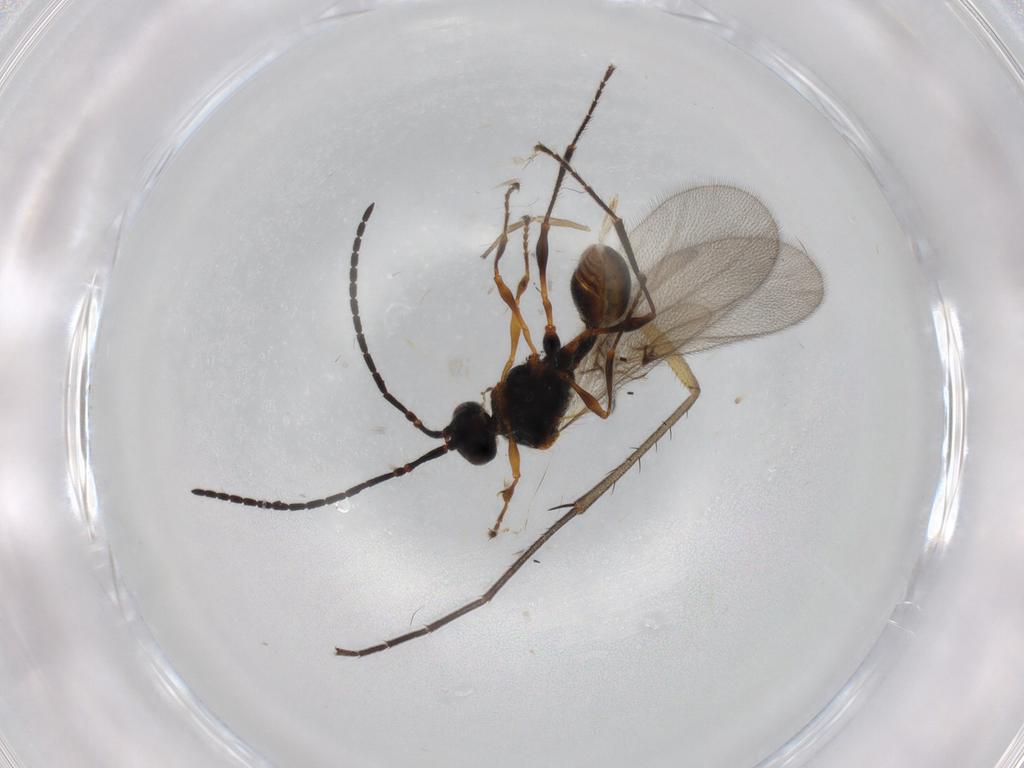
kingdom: Animalia
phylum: Arthropoda
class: Insecta
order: Hymenoptera
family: Diapriidae
